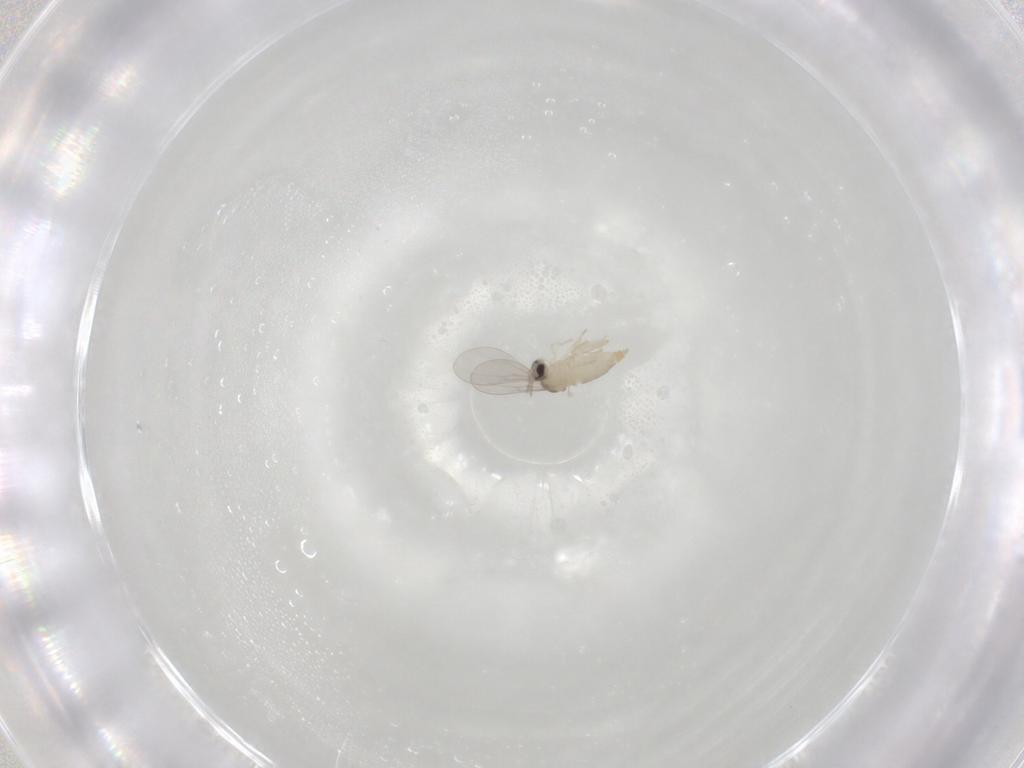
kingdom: Animalia
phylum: Arthropoda
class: Insecta
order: Diptera
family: Cecidomyiidae
